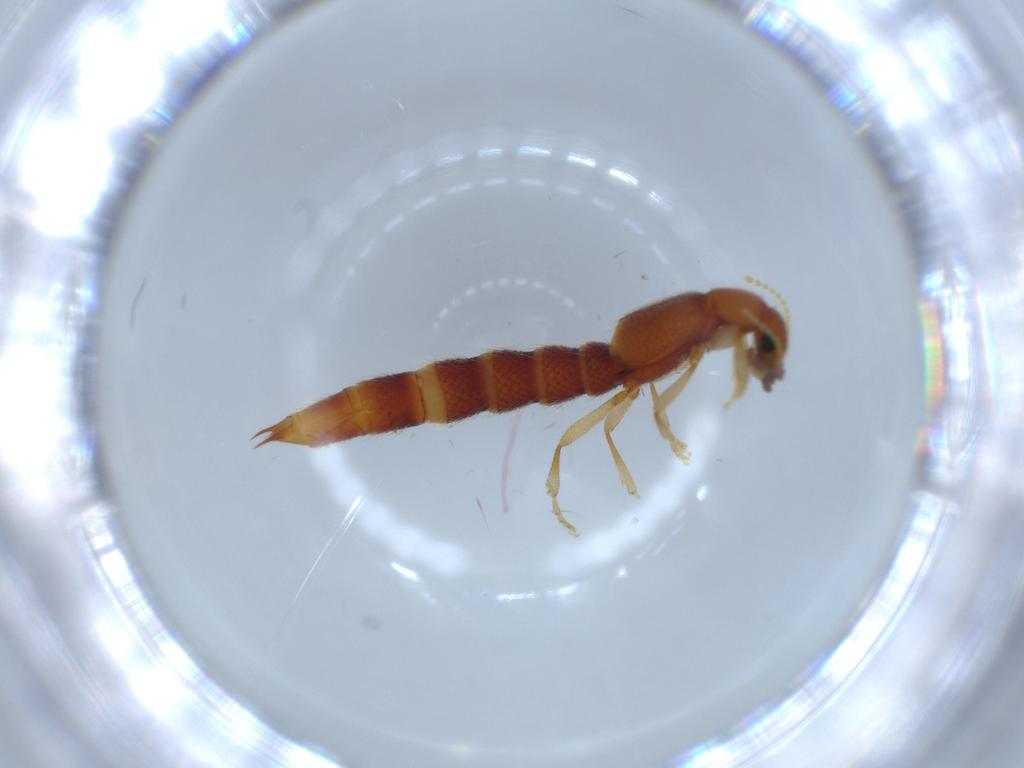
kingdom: Animalia
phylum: Arthropoda
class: Insecta
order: Coleoptera
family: Staphylinidae
